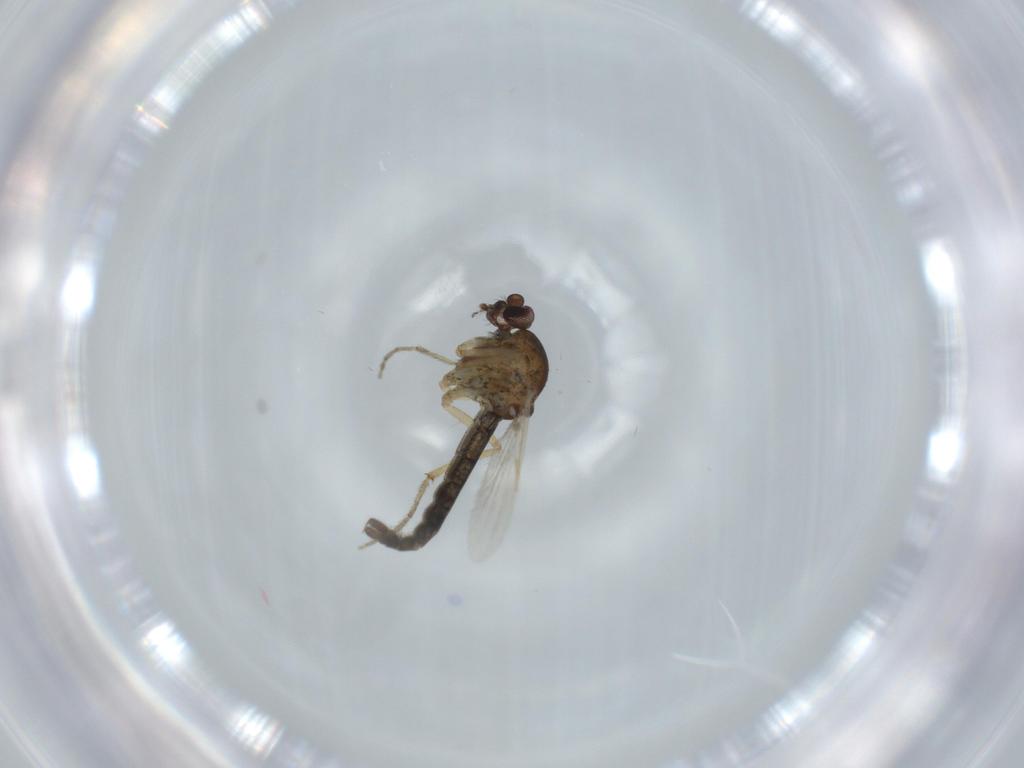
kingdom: Animalia
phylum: Arthropoda
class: Insecta
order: Diptera
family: Ceratopogonidae
